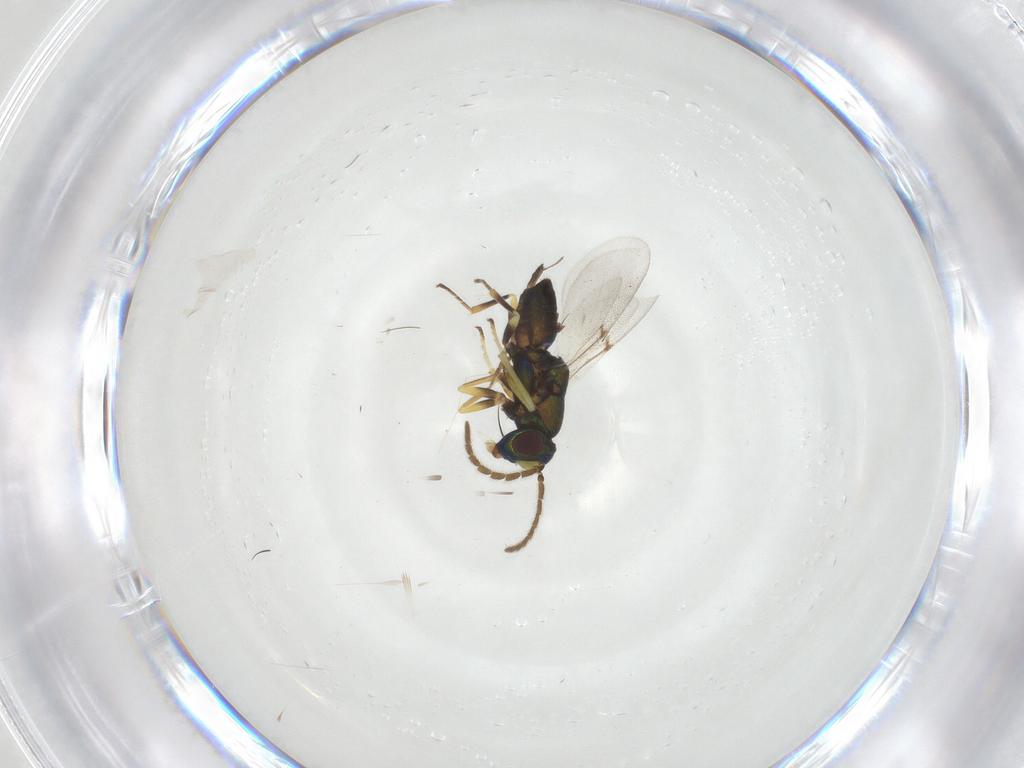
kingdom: Animalia
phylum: Arthropoda
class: Insecta
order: Hymenoptera
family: Encyrtidae
